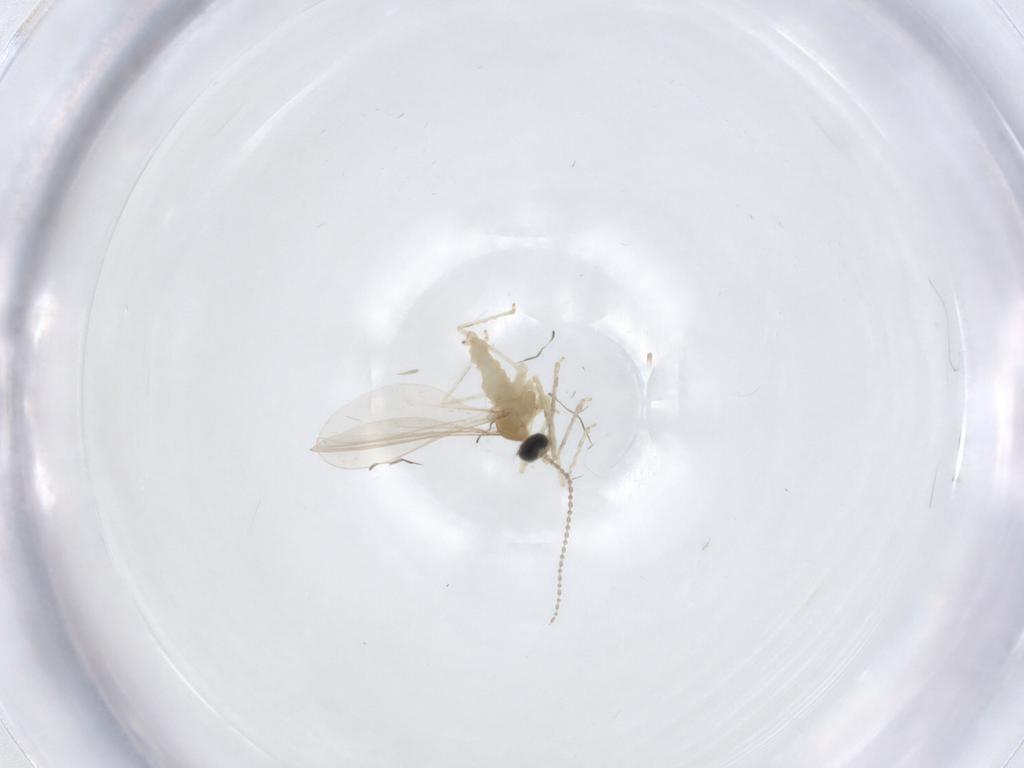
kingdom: Animalia
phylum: Arthropoda
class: Insecta
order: Diptera
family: Cecidomyiidae
